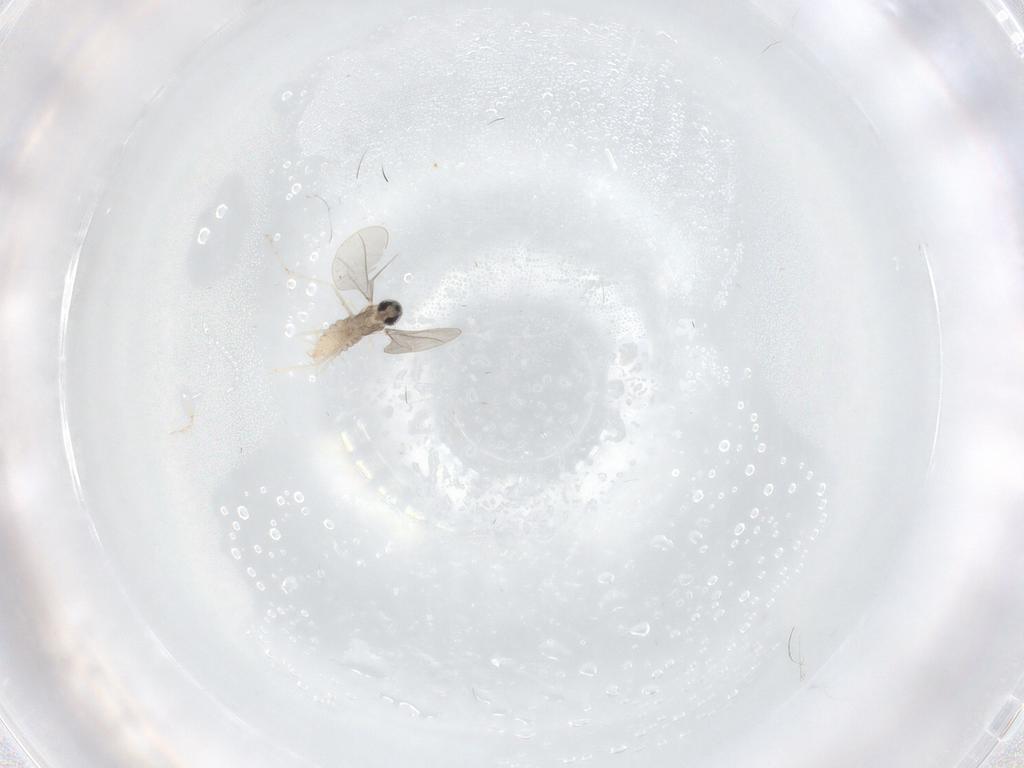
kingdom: Animalia
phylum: Arthropoda
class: Insecta
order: Diptera
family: Cecidomyiidae
